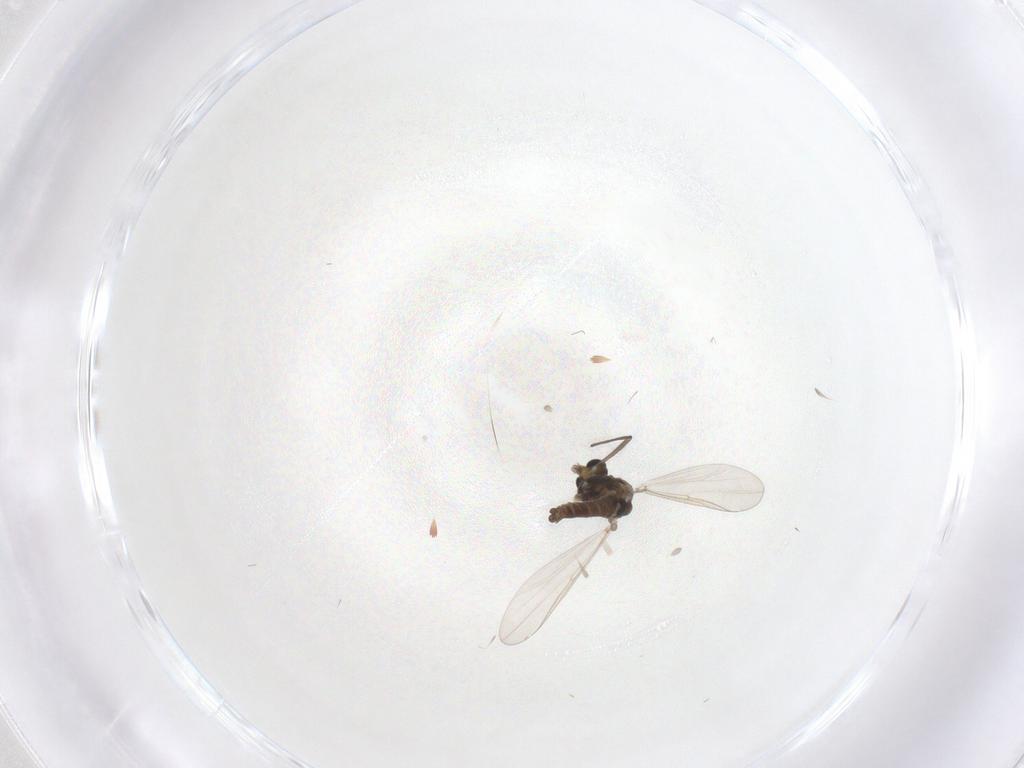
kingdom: Animalia
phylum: Arthropoda
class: Insecta
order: Diptera
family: Chironomidae
